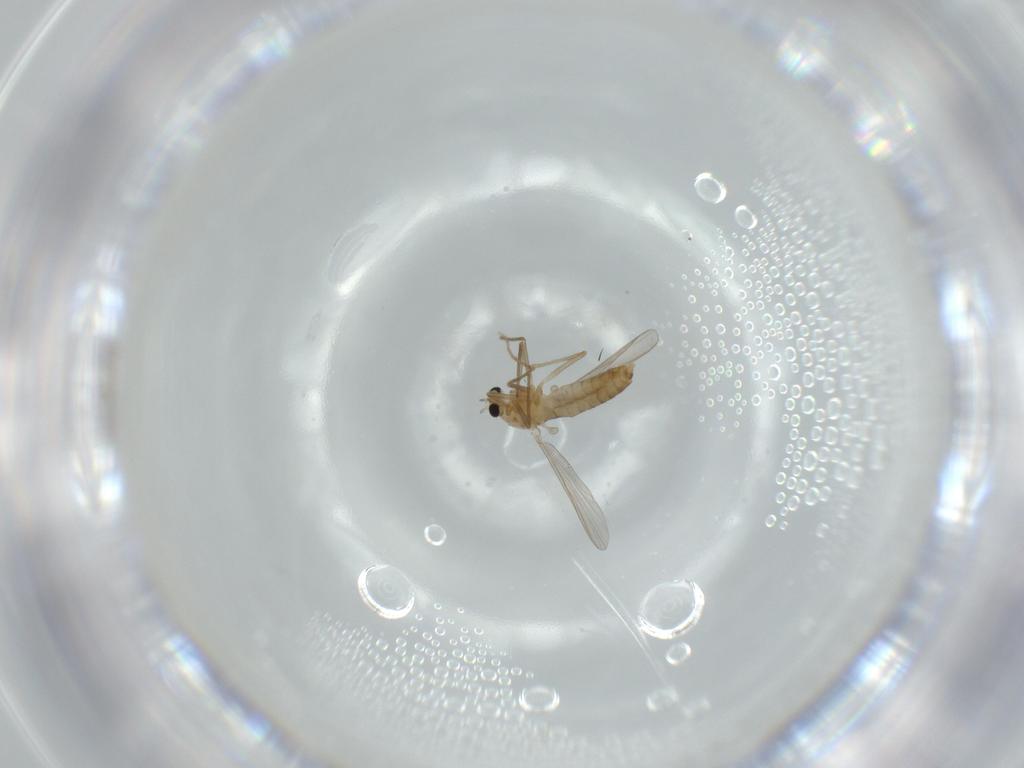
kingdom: Animalia
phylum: Arthropoda
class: Insecta
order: Diptera
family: Chironomidae
